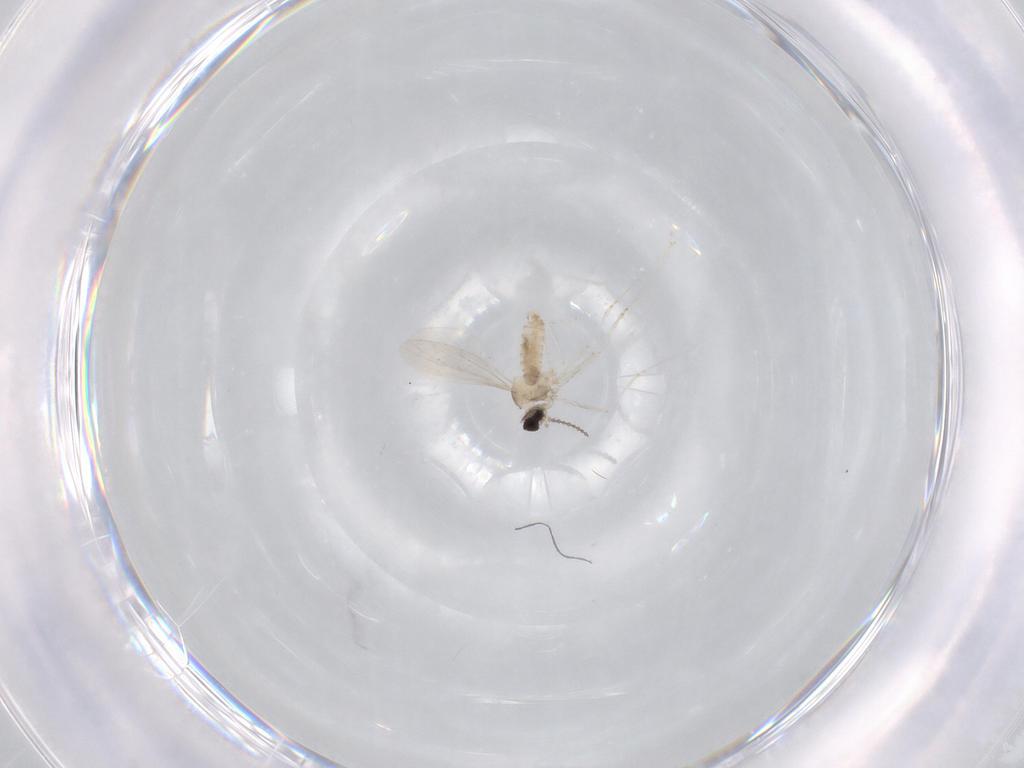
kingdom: Animalia
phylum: Arthropoda
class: Insecta
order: Diptera
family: Cecidomyiidae
